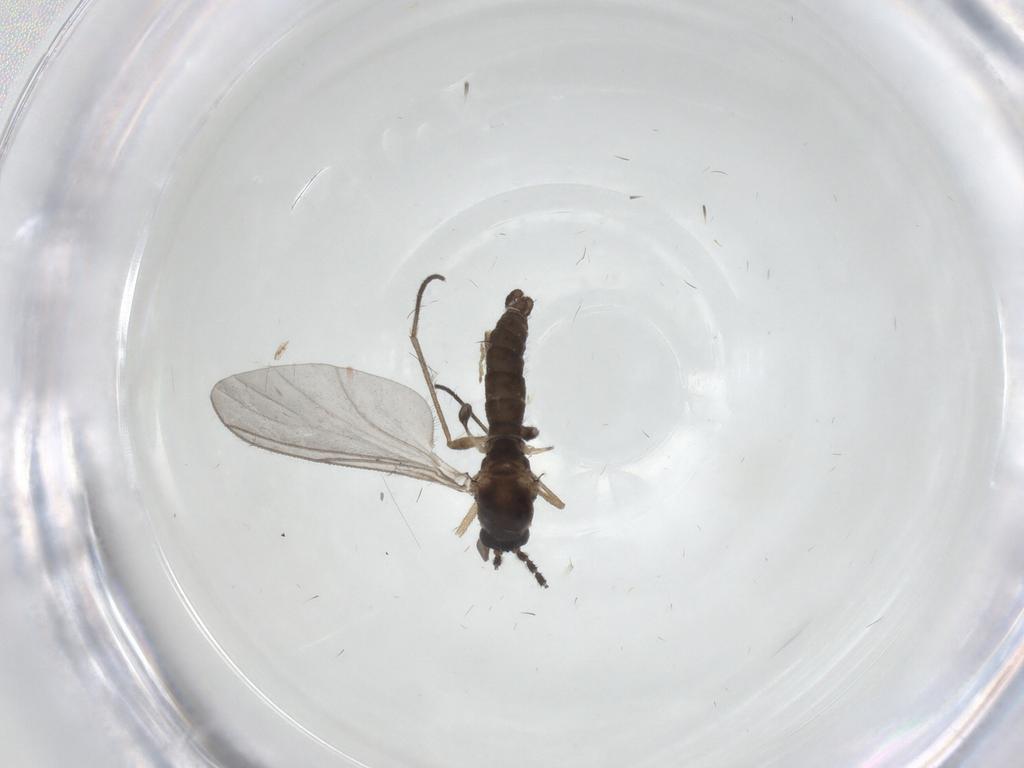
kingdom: Animalia
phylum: Arthropoda
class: Insecta
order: Diptera
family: Sciaridae
